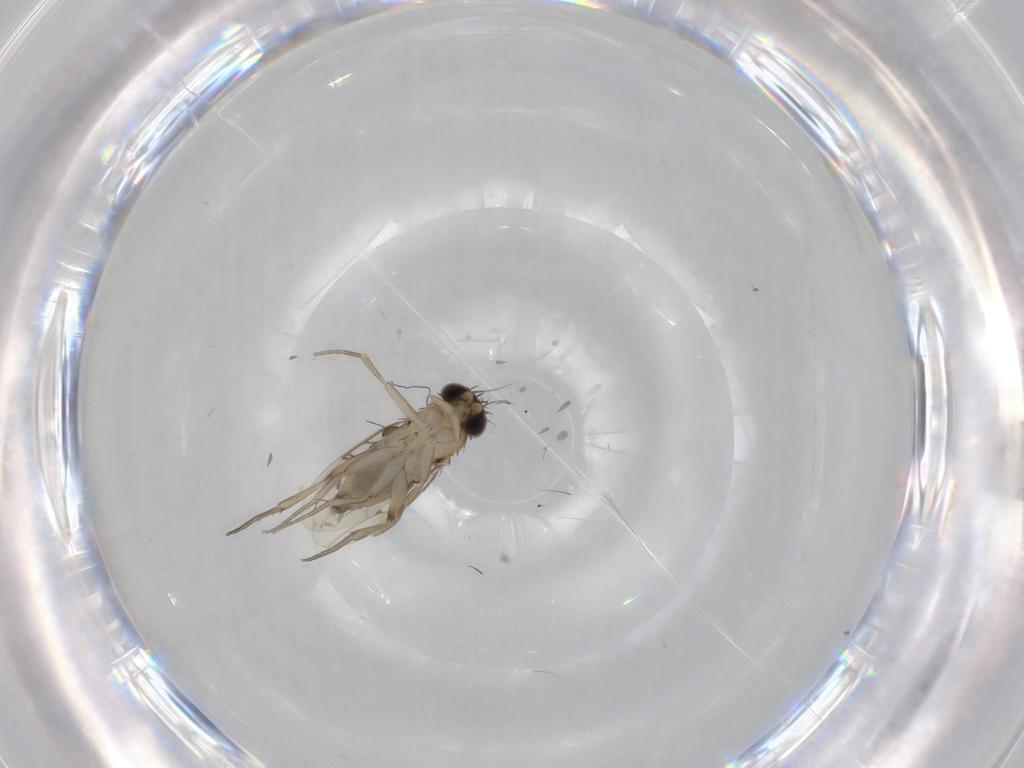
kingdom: Animalia
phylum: Arthropoda
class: Insecta
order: Diptera
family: Phoridae
